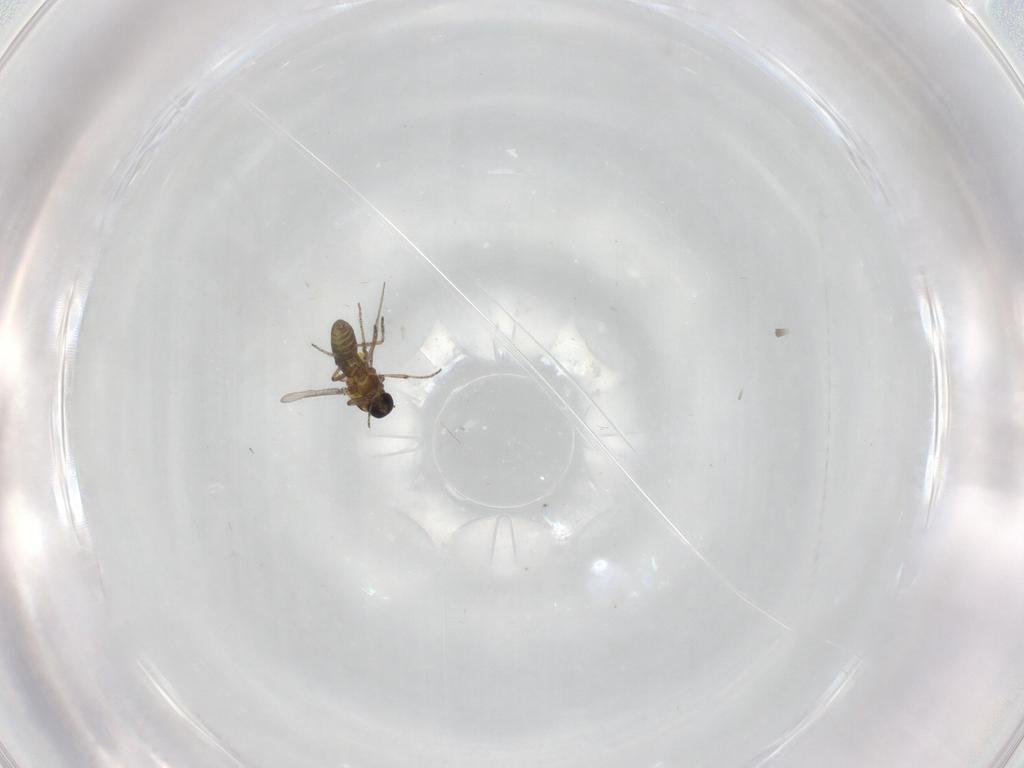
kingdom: Animalia
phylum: Arthropoda
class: Insecta
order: Diptera
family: Ceratopogonidae
